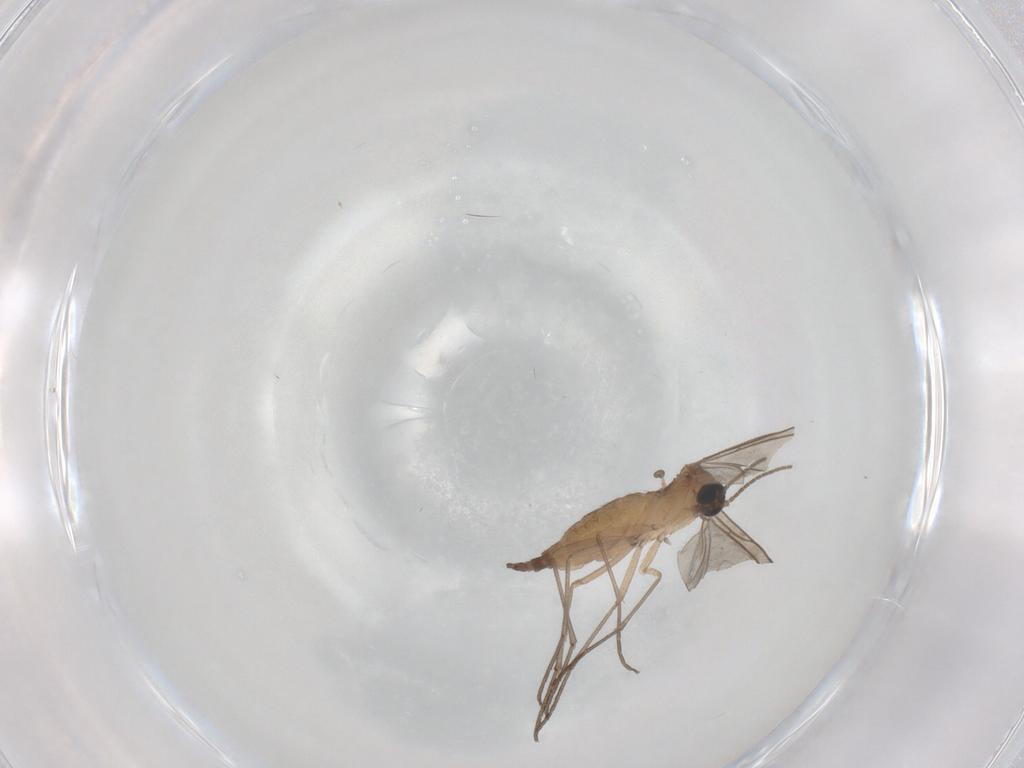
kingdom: Animalia
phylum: Arthropoda
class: Insecta
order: Diptera
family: Sciaridae
